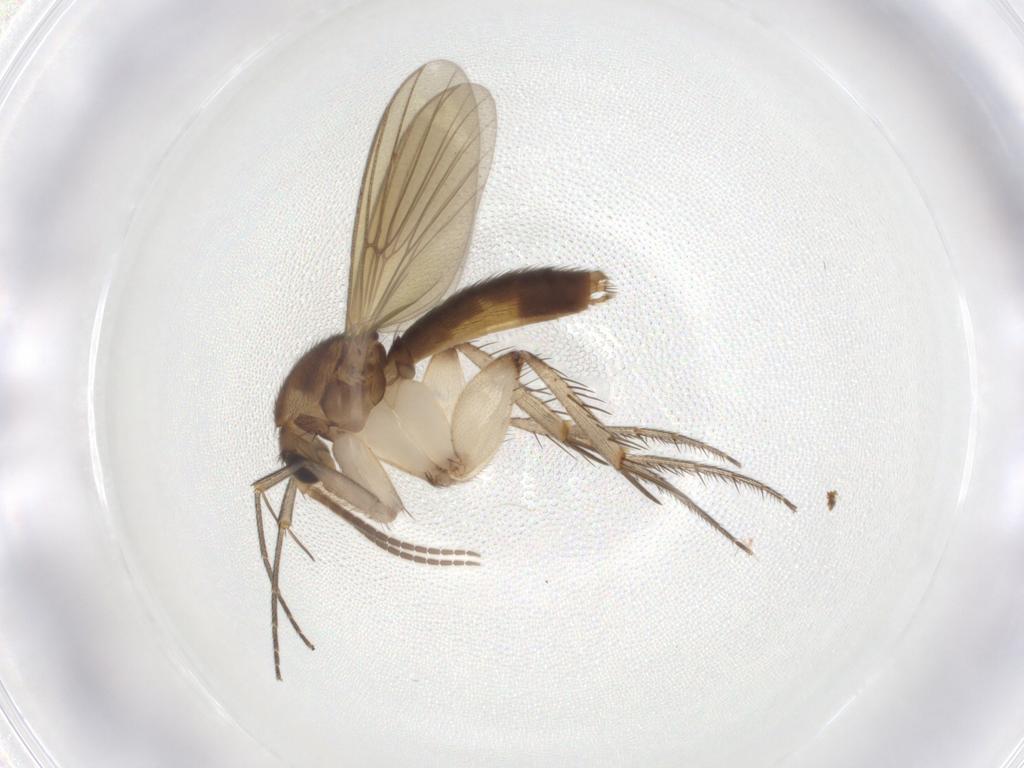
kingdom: Animalia
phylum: Arthropoda
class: Insecta
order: Diptera
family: Mycetophilidae
